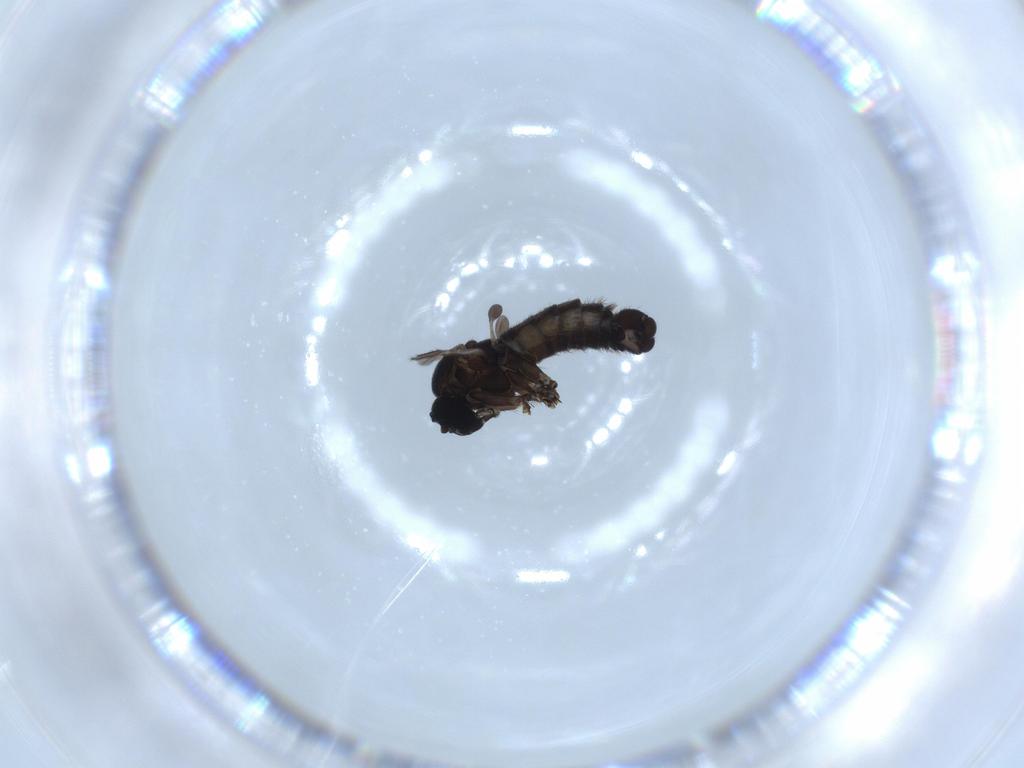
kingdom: Animalia
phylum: Arthropoda
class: Insecta
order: Diptera
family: Sciaridae
